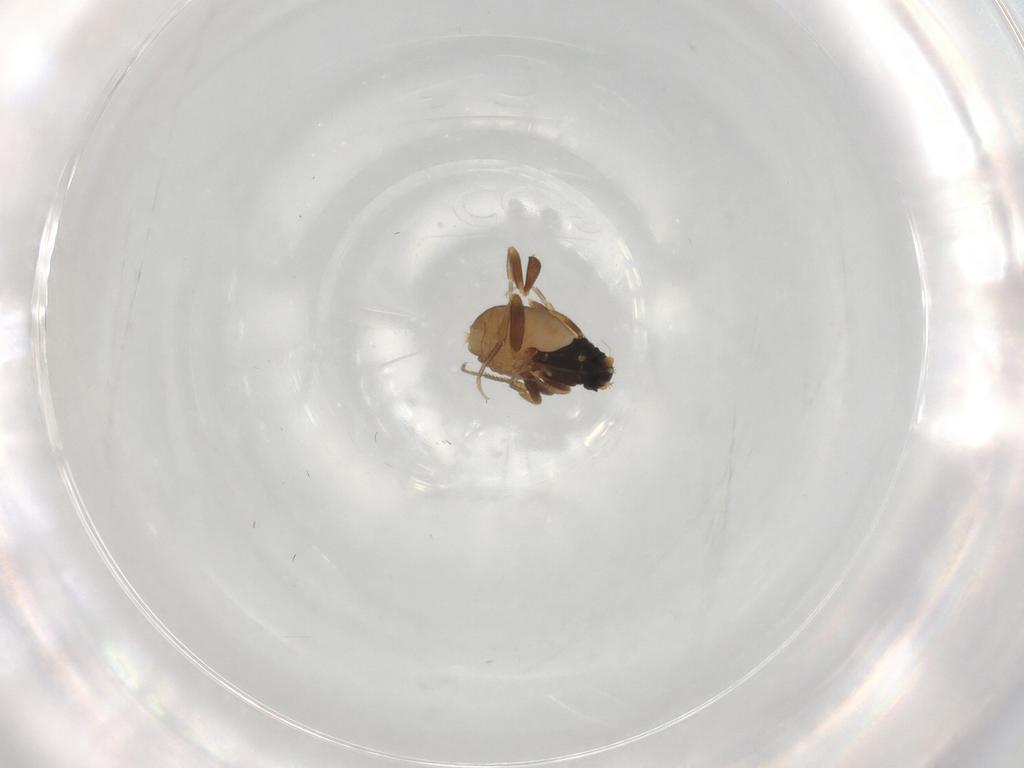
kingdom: Animalia
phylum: Arthropoda
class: Insecta
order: Diptera
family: Phoridae
